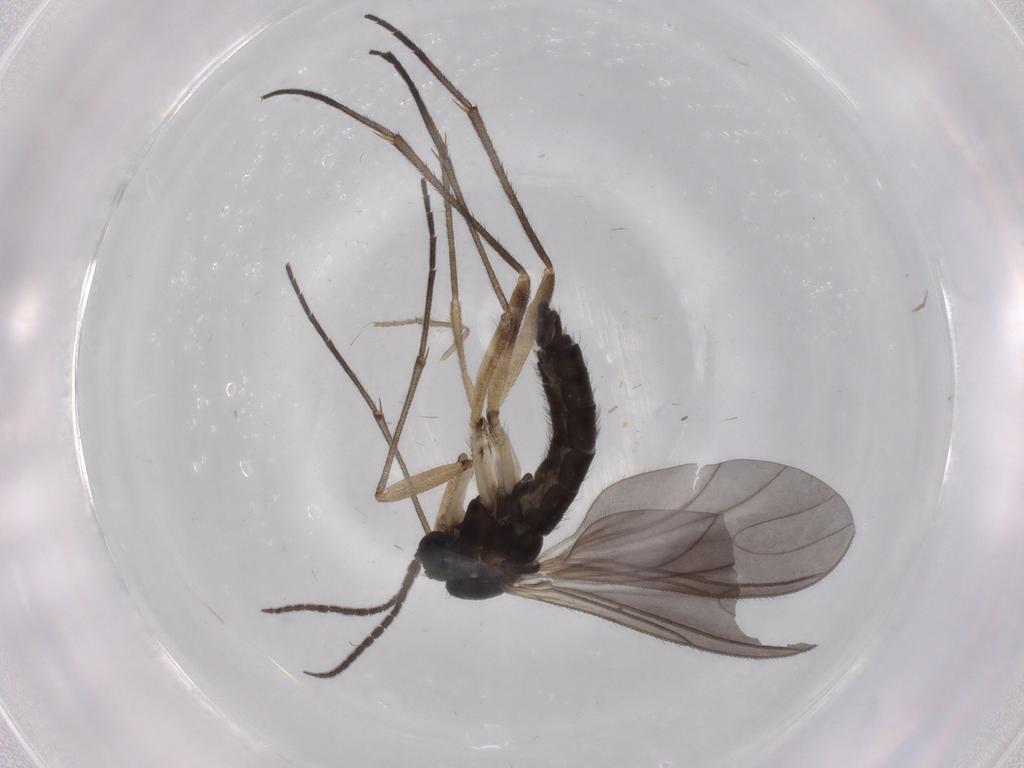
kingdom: Animalia
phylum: Arthropoda
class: Insecta
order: Diptera
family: Sciaridae
